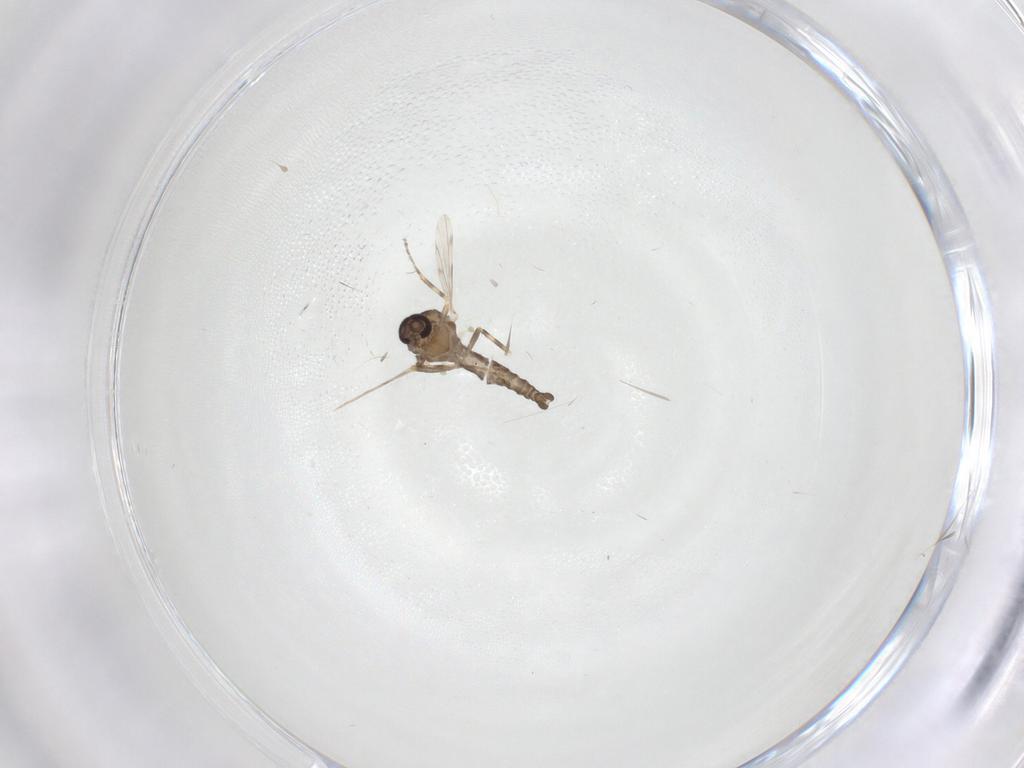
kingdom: Animalia
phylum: Arthropoda
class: Insecta
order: Diptera
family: Ceratopogonidae
